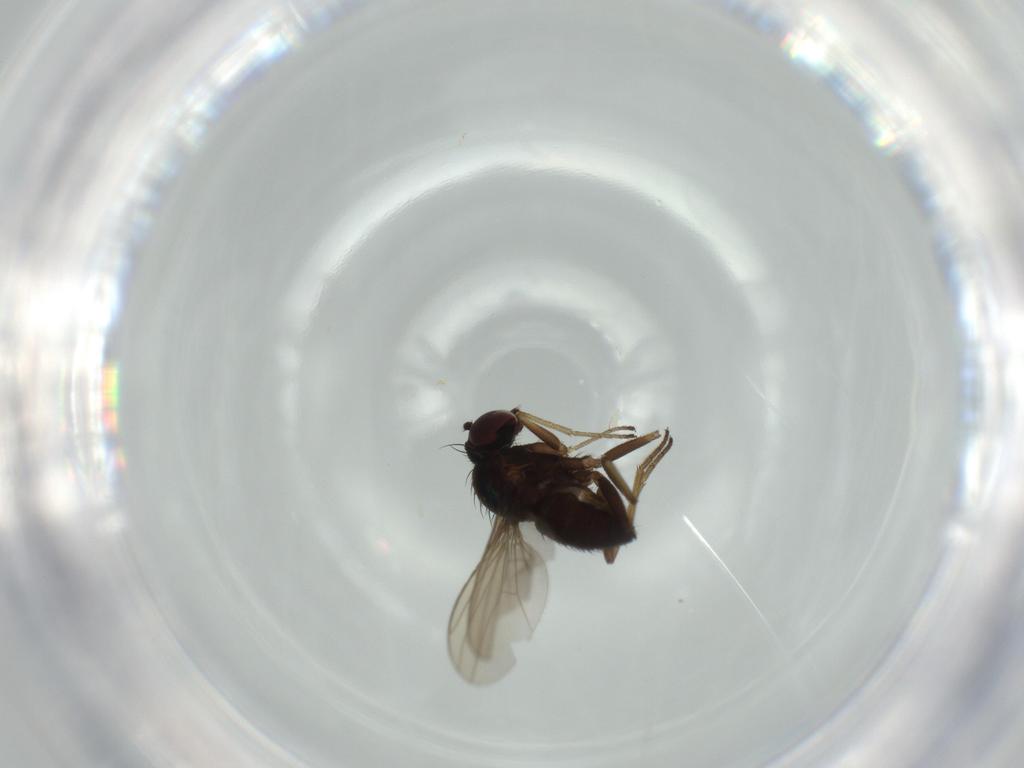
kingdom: Animalia
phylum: Arthropoda
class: Insecta
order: Diptera
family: Dolichopodidae
